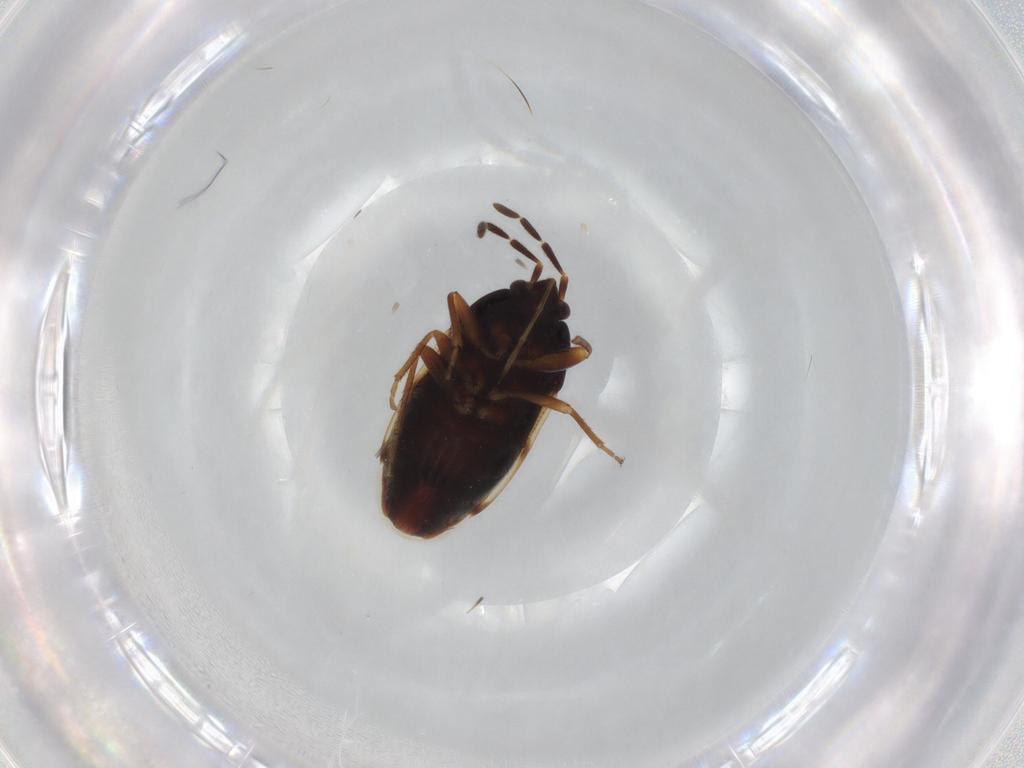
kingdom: Animalia
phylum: Arthropoda
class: Insecta
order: Hemiptera
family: Rhyparochromidae
